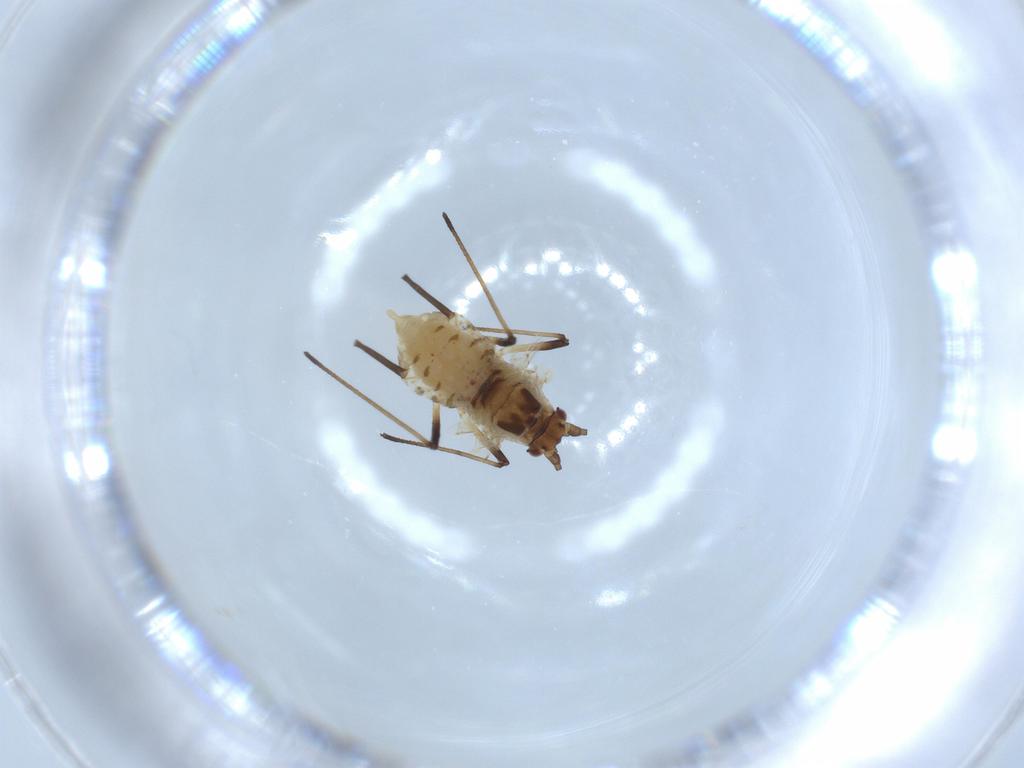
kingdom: Animalia
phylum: Arthropoda
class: Insecta
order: Hemiptera
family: Aphididae
